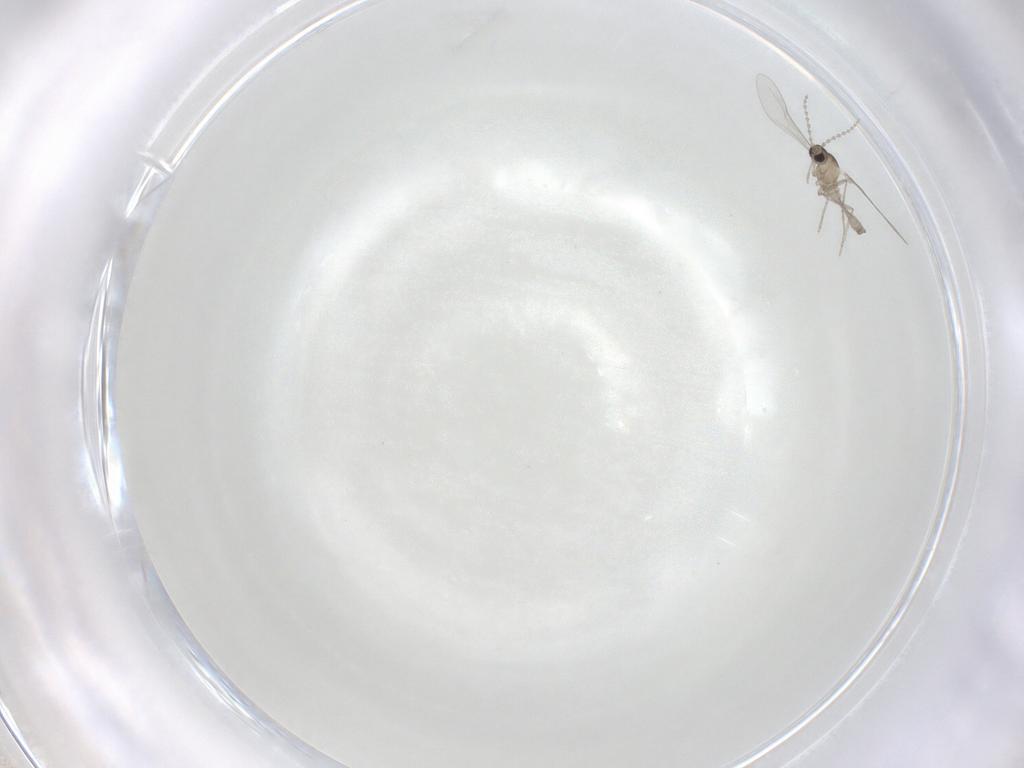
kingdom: Animalia
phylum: Arthropoda
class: Insecta
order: Diptera
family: Cecidomyiidae
